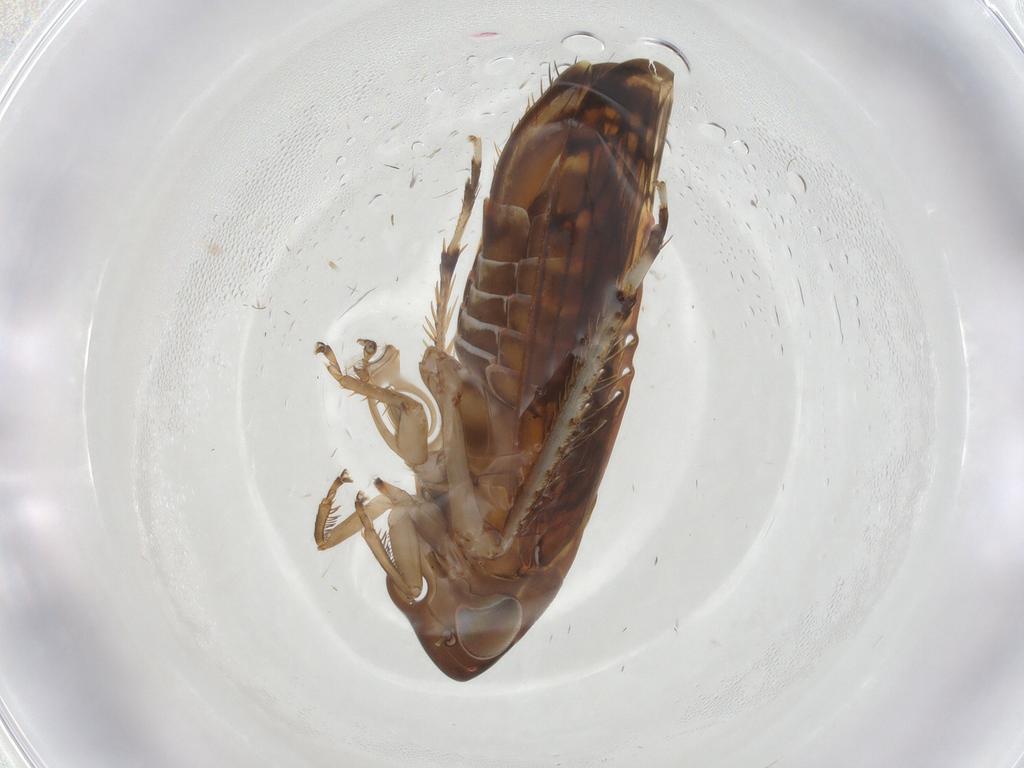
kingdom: Animalia
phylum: Arthropoda
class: Insecta
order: Hemiptera
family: Cicadellidae
